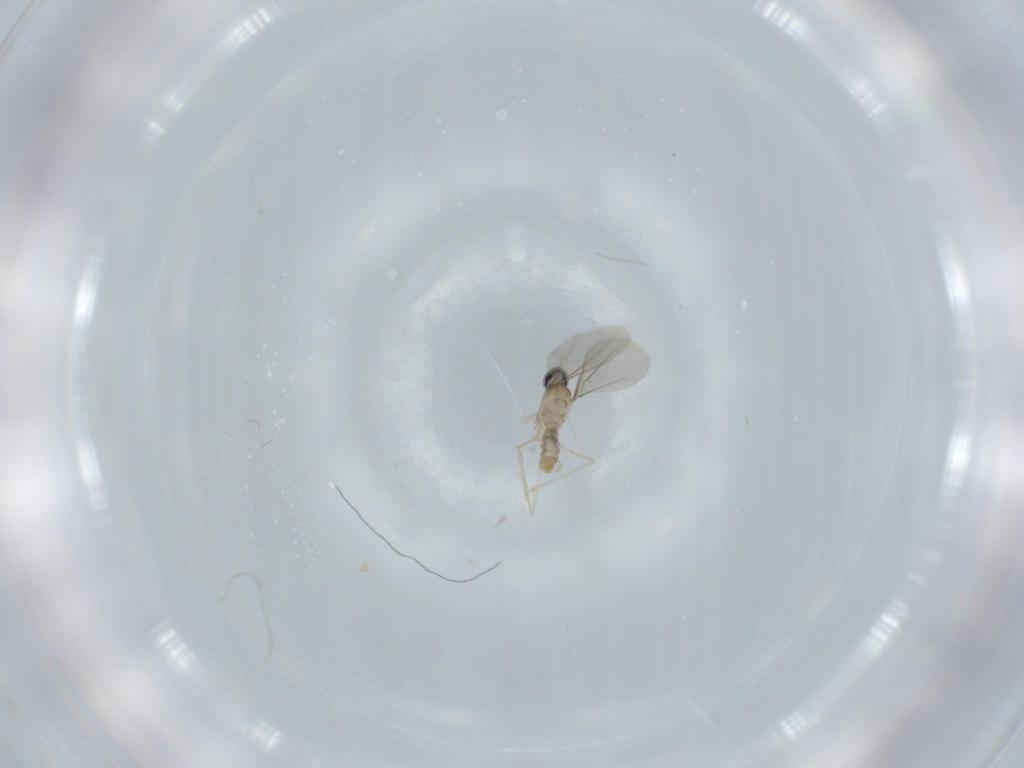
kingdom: Animalia
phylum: Arthropoda
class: Insecta
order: Diptera
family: Cecidomyiidae
